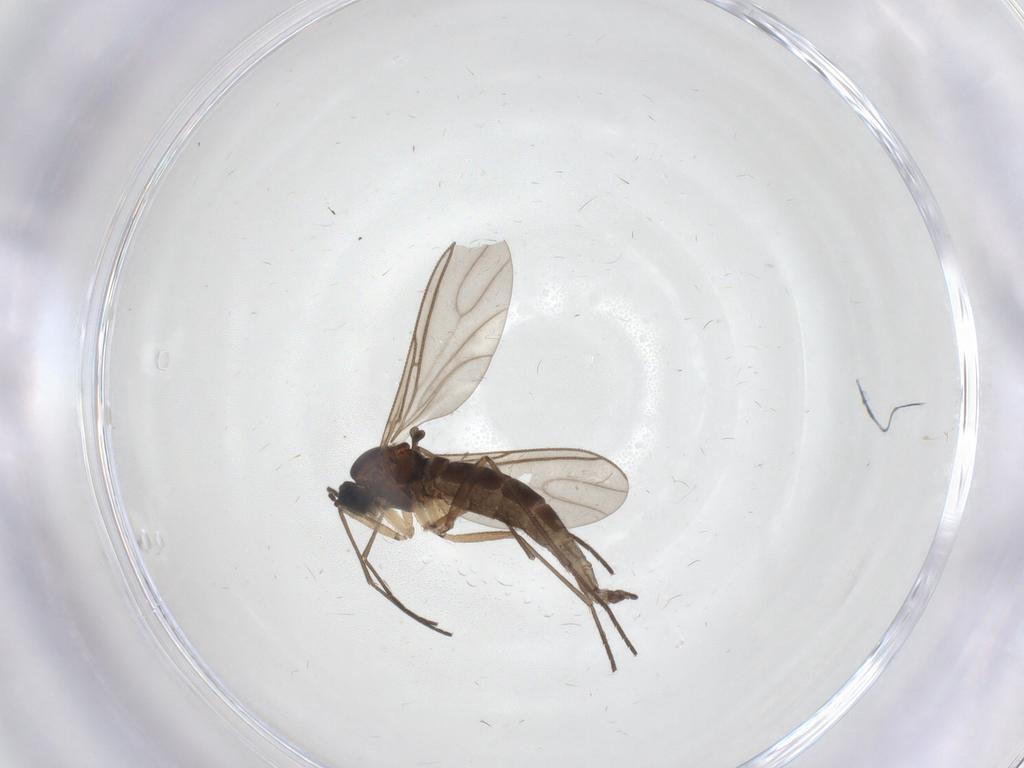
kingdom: Animalia
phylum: Arthropoda
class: Insecta
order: Diptera
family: Sciaridae
